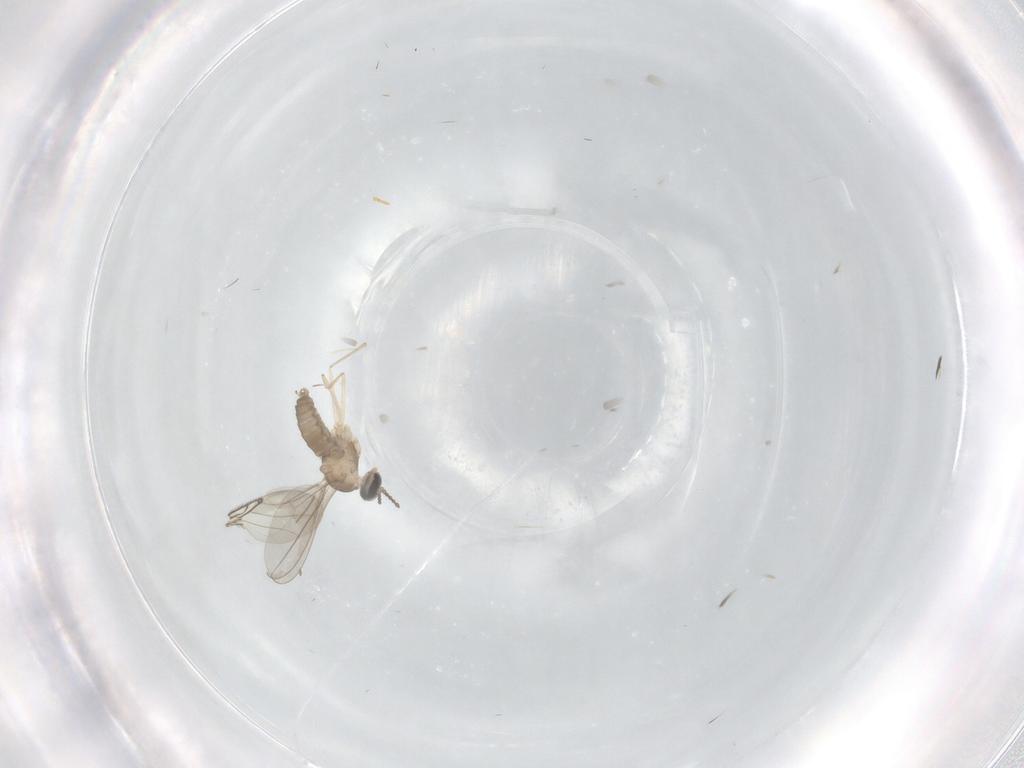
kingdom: Animalia
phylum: Arthropoda
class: Insecta
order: Diptera
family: Cecidomyiidae
